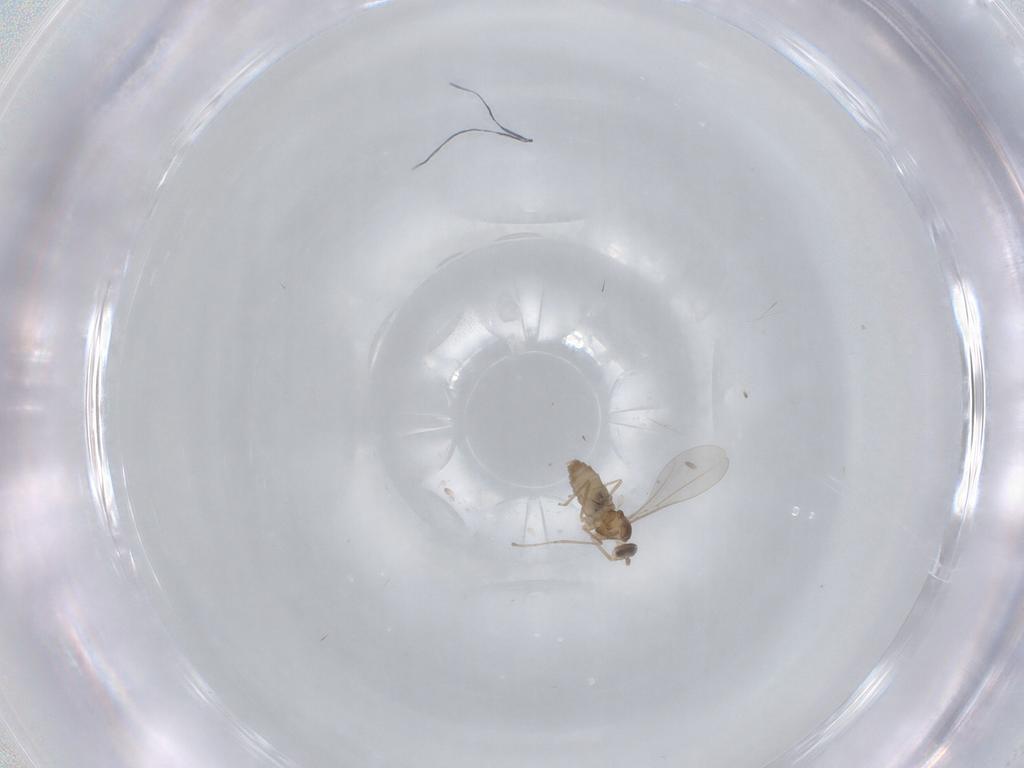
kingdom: Animalia
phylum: Arthropoda
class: Insecta
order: Diptera
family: Cecidomyiidae
